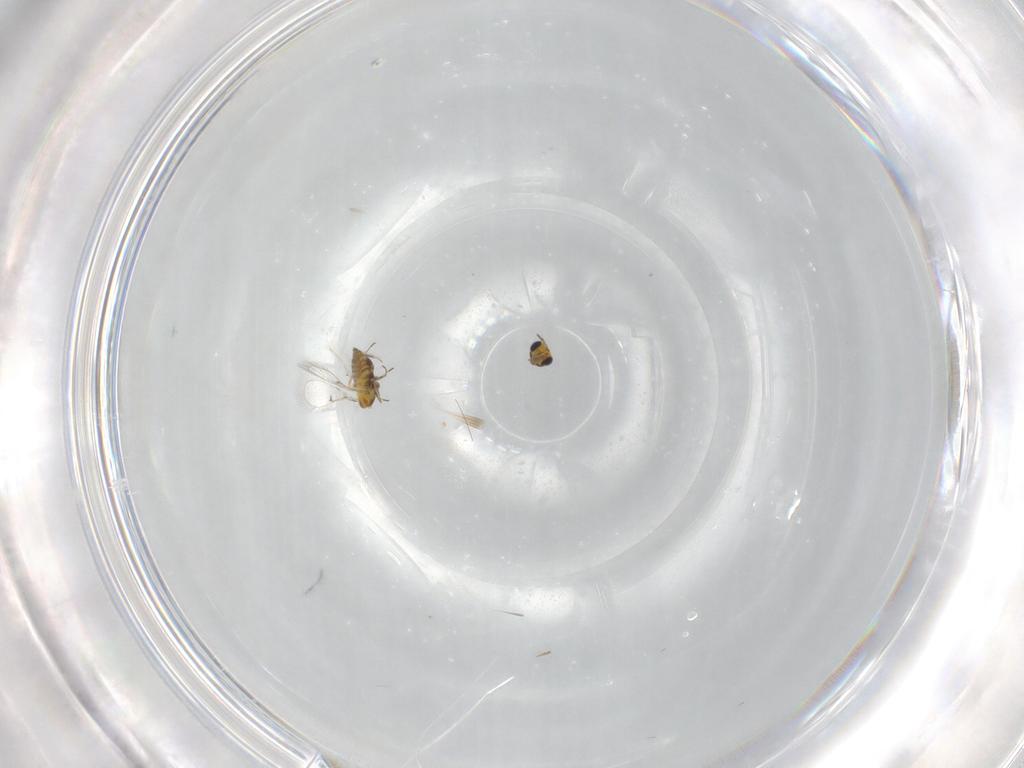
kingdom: Animalia
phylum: Arthropoda
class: Insecta
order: Hymenoptera
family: Trichogrammatidae
